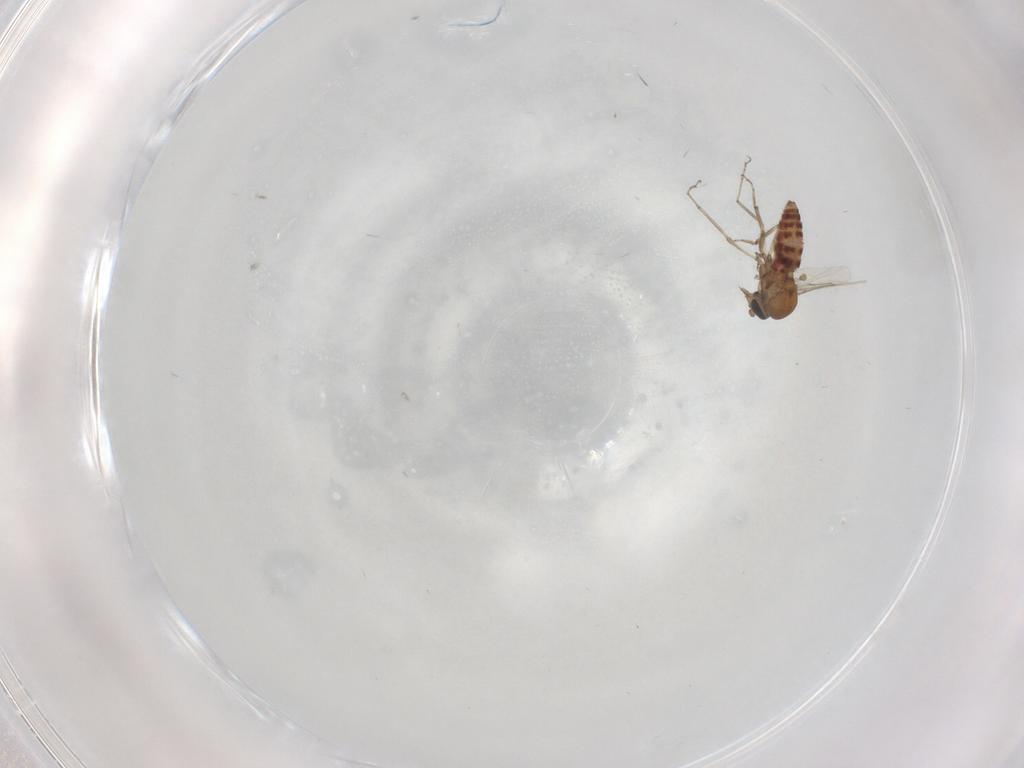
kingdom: Animalia
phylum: Arthropoda
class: Insecta
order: Diptera
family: Ceratopogonidae
